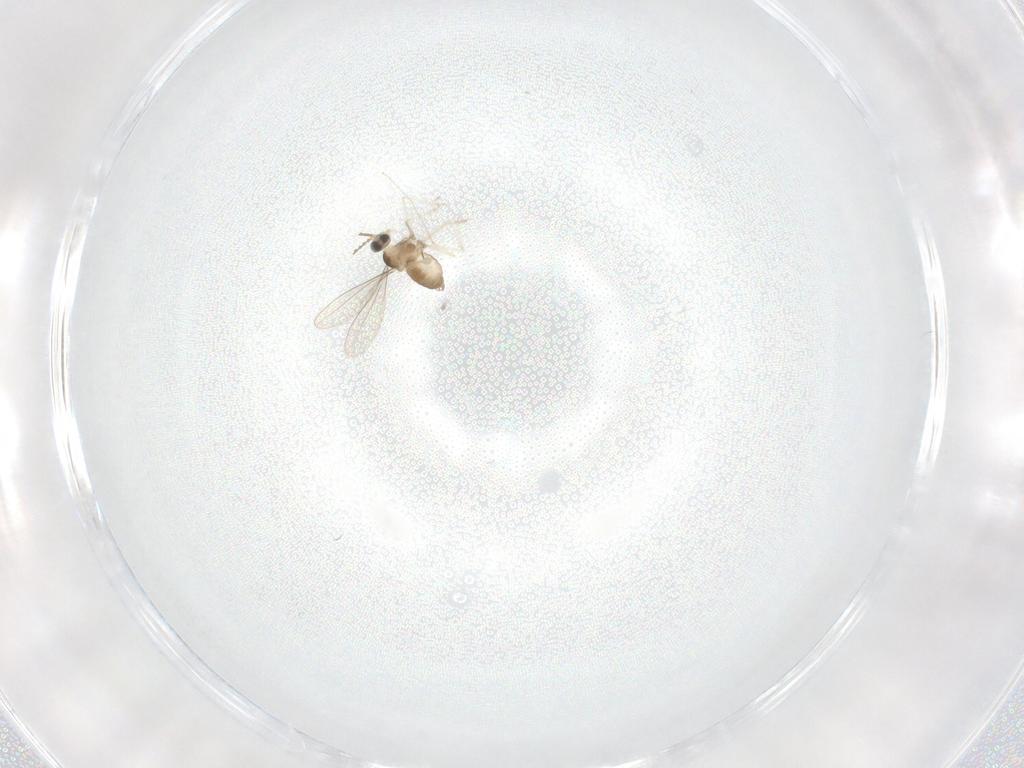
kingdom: Animalia
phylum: Arthropoda
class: Insecta
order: Diptera
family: Cecidomyiidae
